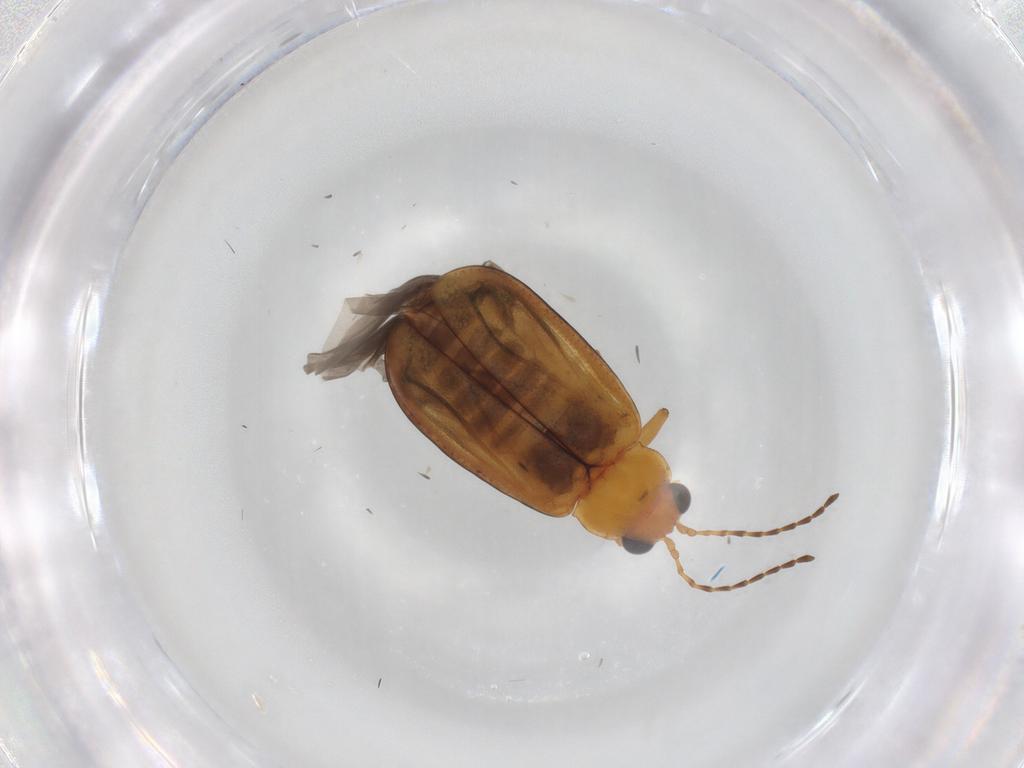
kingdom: Animalia
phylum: Arthropoda
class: Insecta
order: Coleoptera
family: Chrysomelidae
